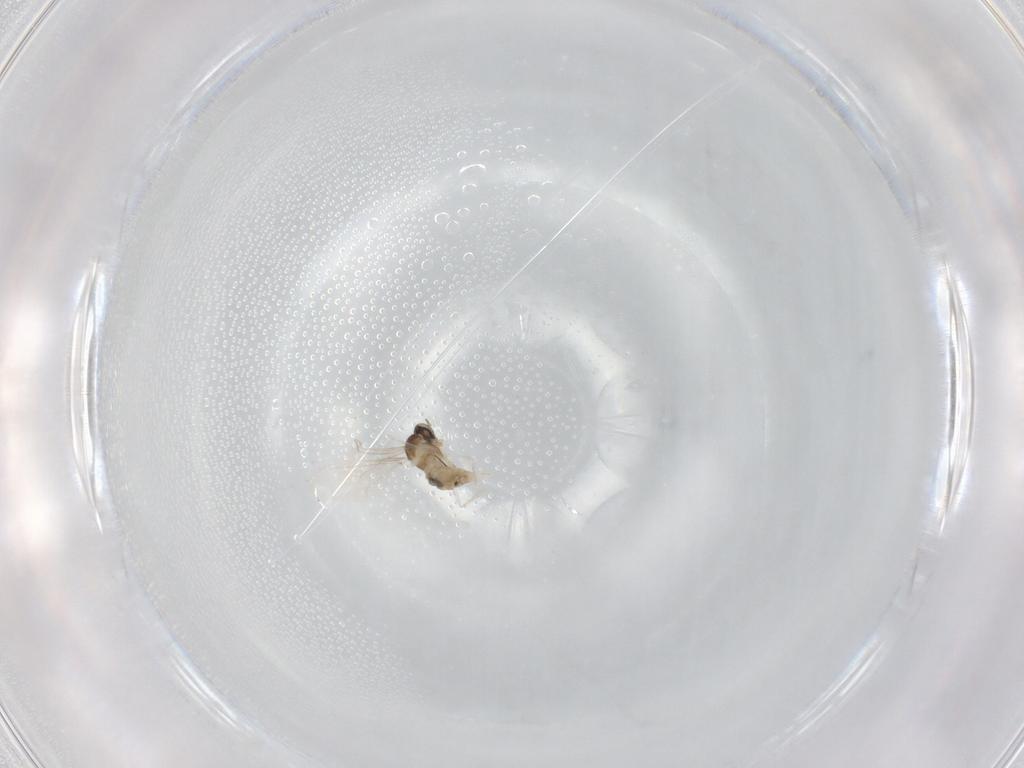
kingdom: Animalia
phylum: Arthropoda
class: Insecta
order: Diptera
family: Cecidomyiidae
